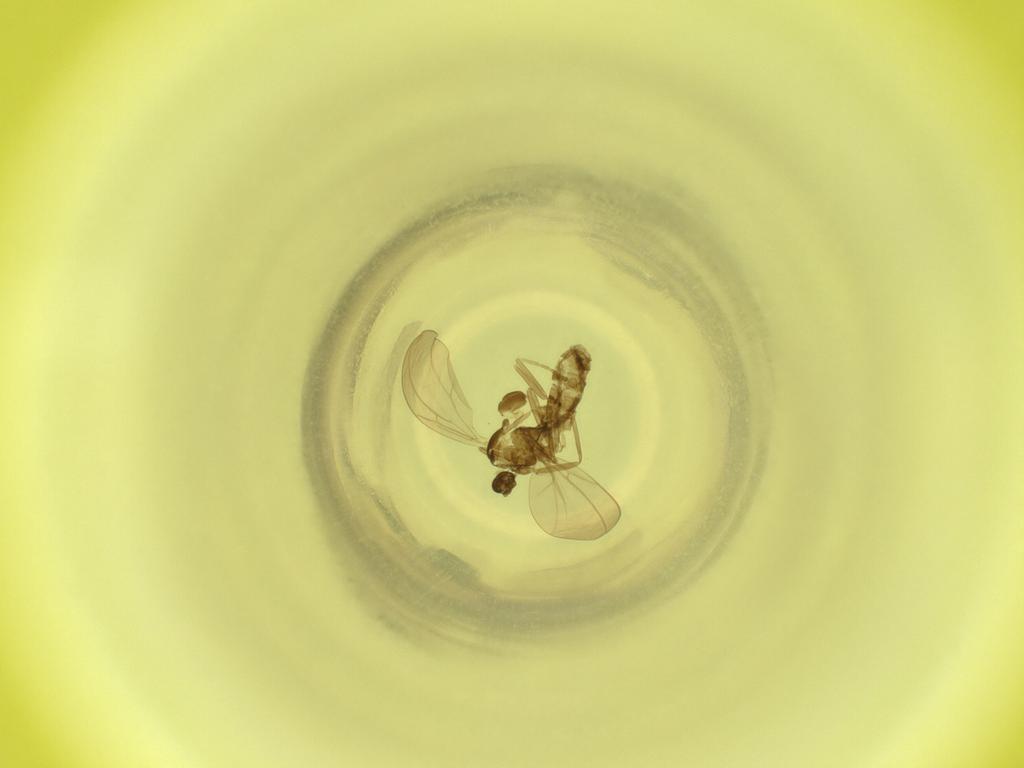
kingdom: Animalia
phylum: Arthropoda
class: Insecta
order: Diptera
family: Cecidomyiidae
